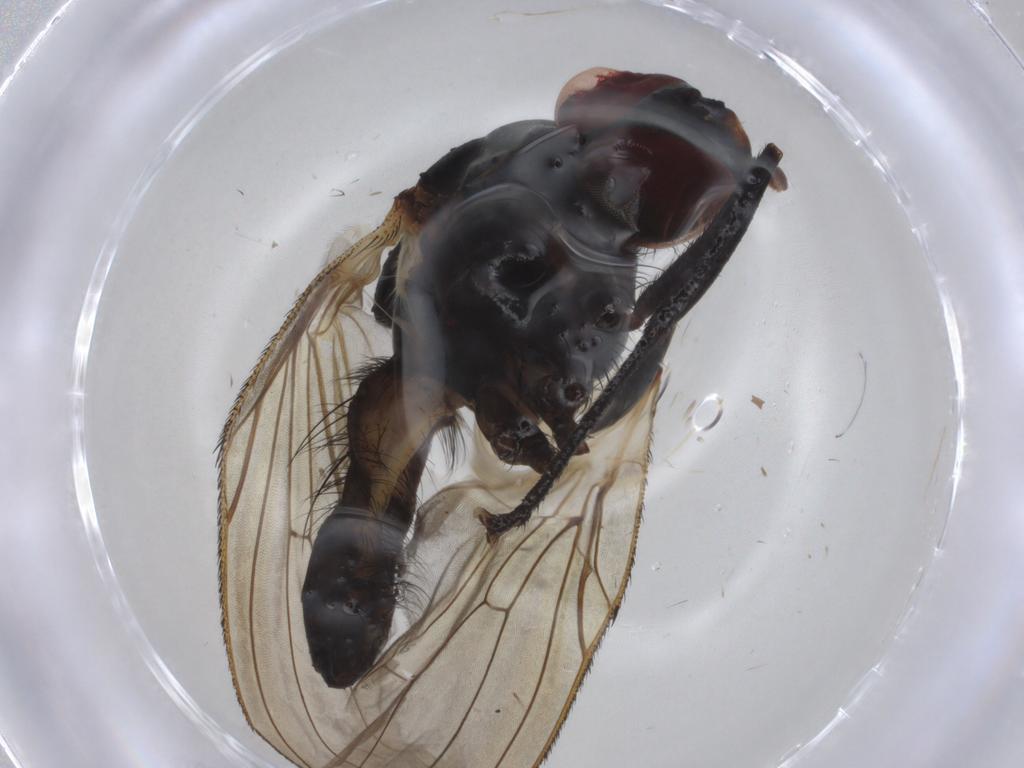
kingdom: Animalia
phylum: Arthropoda
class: Insecta
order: Diptera
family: Anthomyiidae
